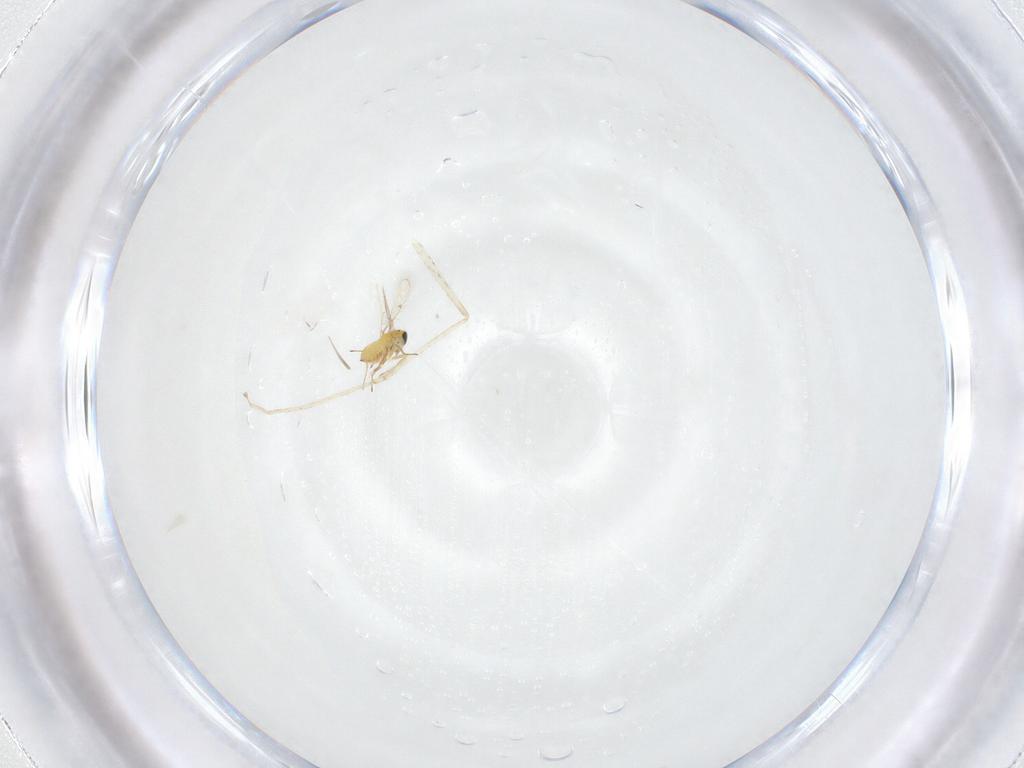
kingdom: Animalia
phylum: Arthropoda
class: Insecta
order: Diptera
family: Cecidomyiidae
